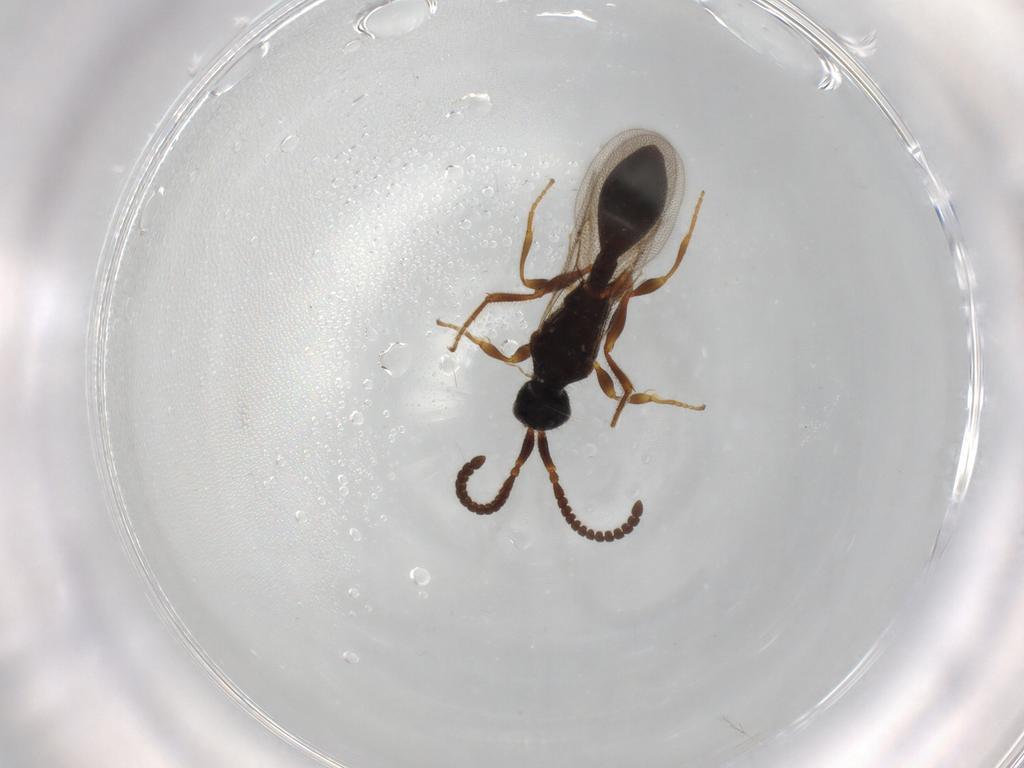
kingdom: Animalia
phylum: Arthropoda
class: Insecta
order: Hymenoptera
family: Diapriidae
